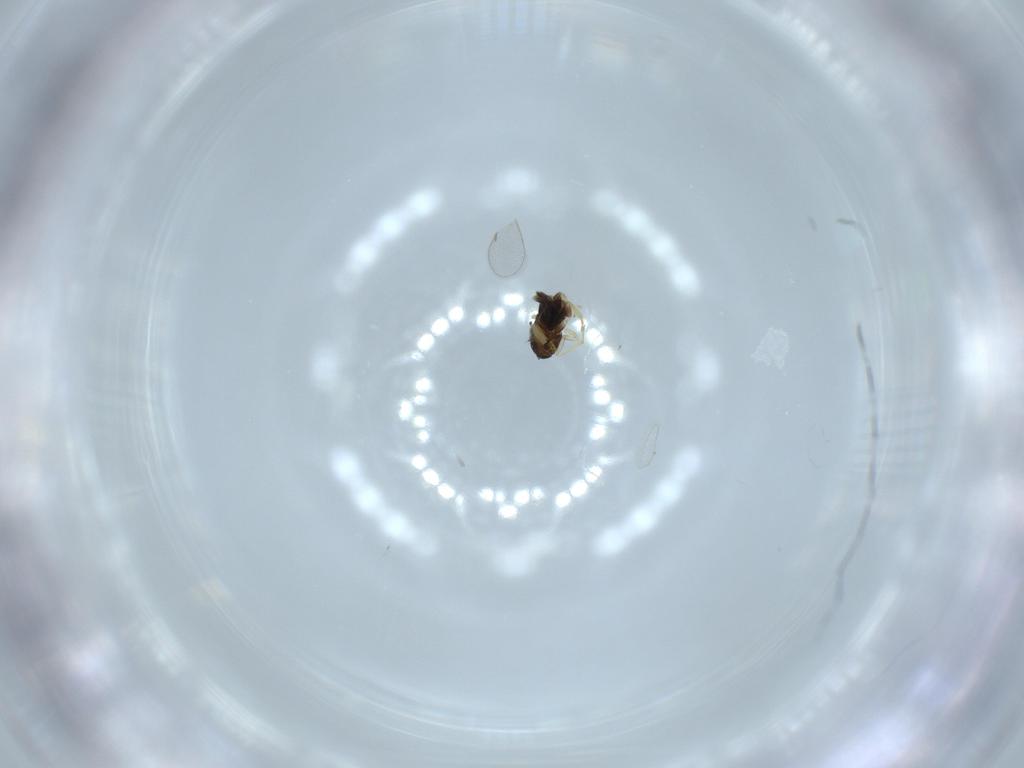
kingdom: Animalia
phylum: Arthropoda
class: Insecta
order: Hymenoptera
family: Aphelinidae
